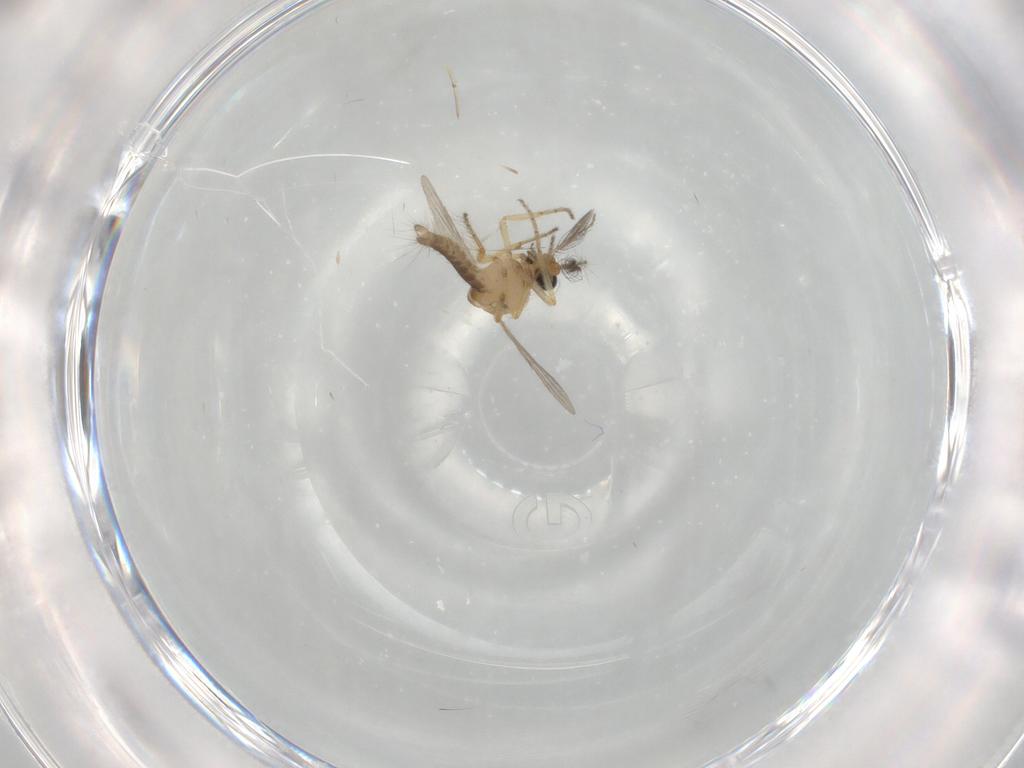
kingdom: Animalia
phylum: Arthropoda
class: Insecta
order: Diptera
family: Ceratopogonidae
